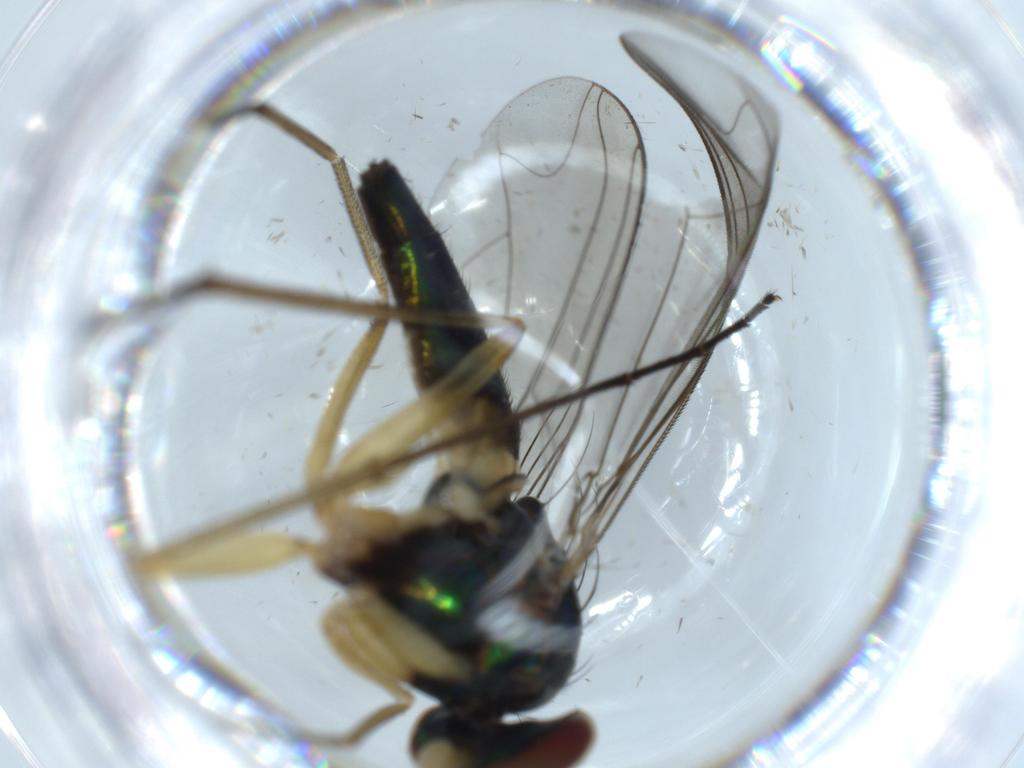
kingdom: Animalia
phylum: Arthropoda
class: Insecta
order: Diptera
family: Dolichopodidae
